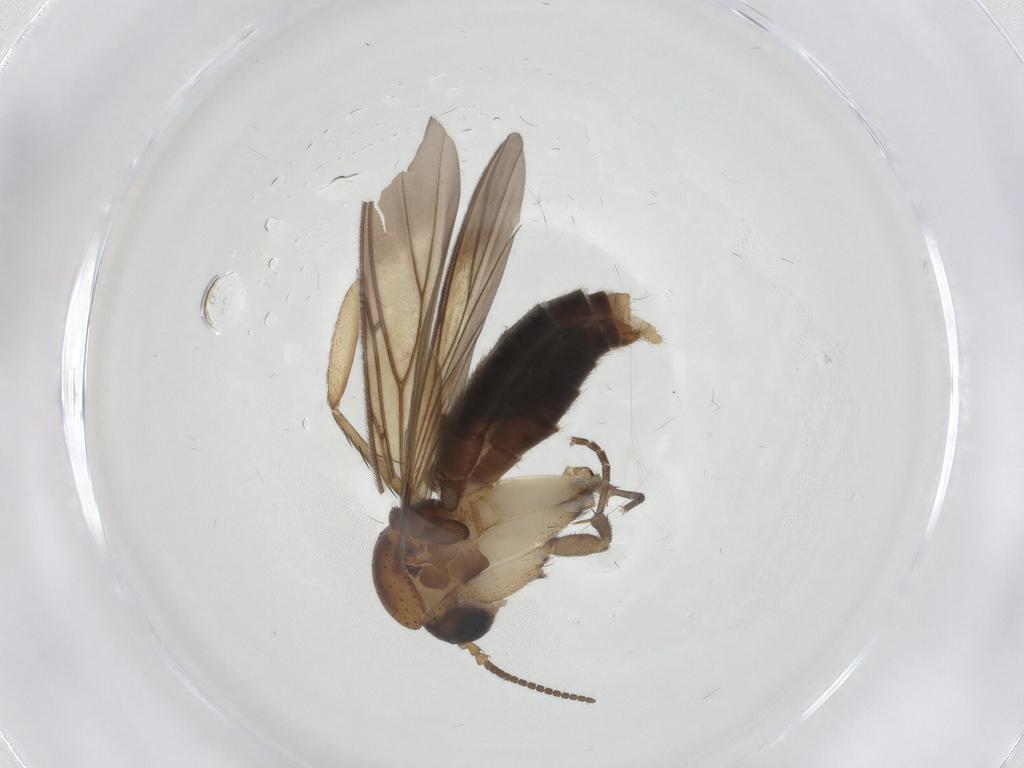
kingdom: Animalia
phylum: Arthropoda
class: Insecta
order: Diptera
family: Mycetophilidae
